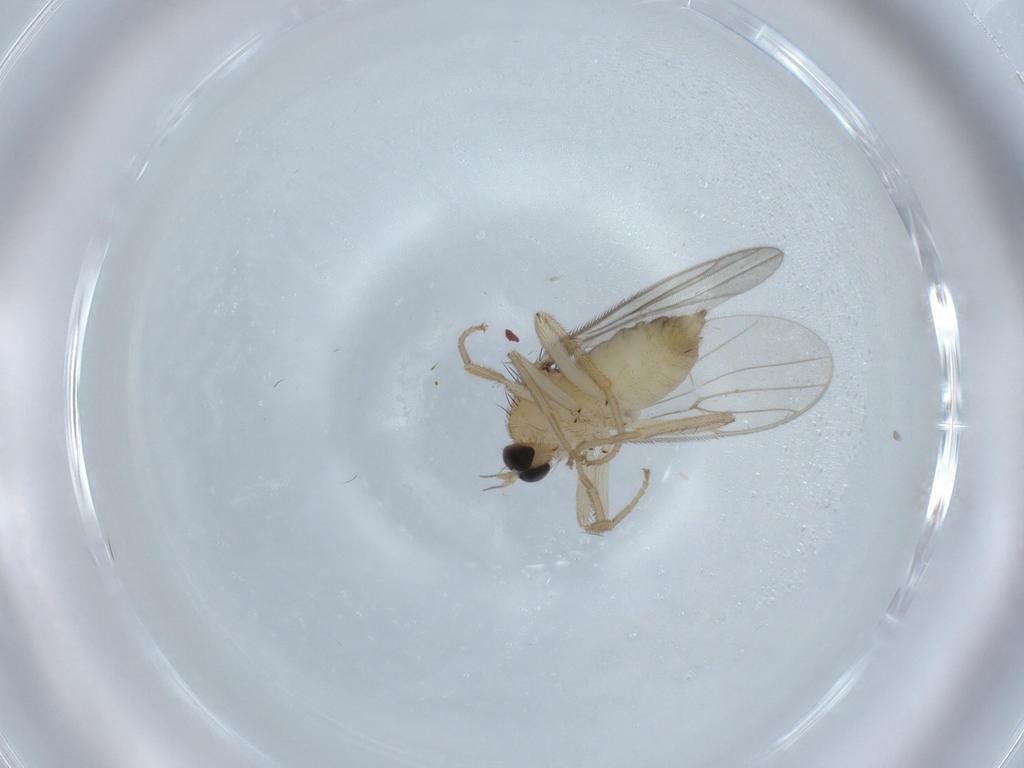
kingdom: Animalia
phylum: Arthropoda
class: Insecta
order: Diptera
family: Hybotidae
